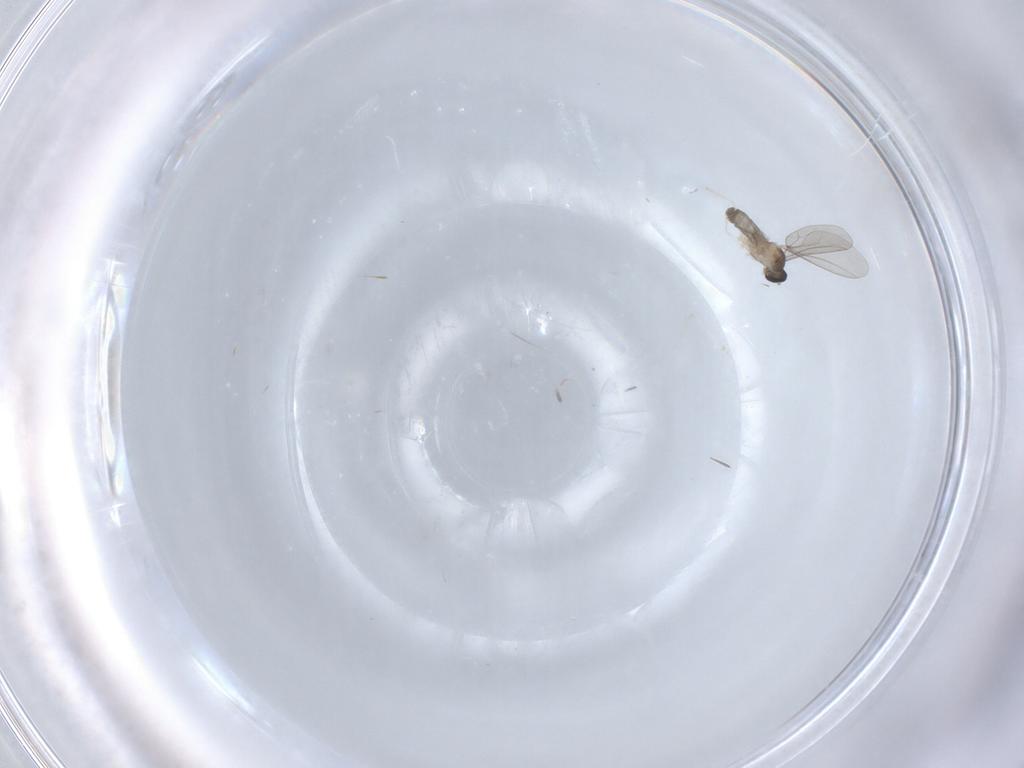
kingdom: Animalia
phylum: Arthropoda
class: Insecta
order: Diptera
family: Cecidomyiidae
